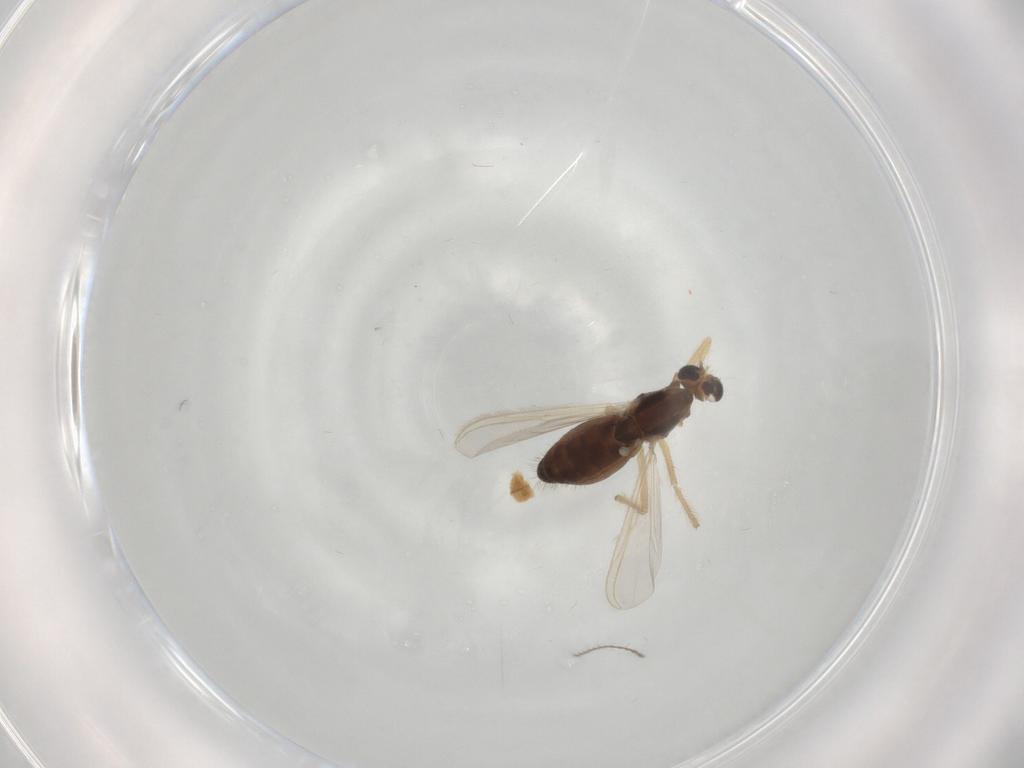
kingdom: Animalia
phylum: Arthropoda
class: Insecta
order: Diptera
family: Chironomidae
